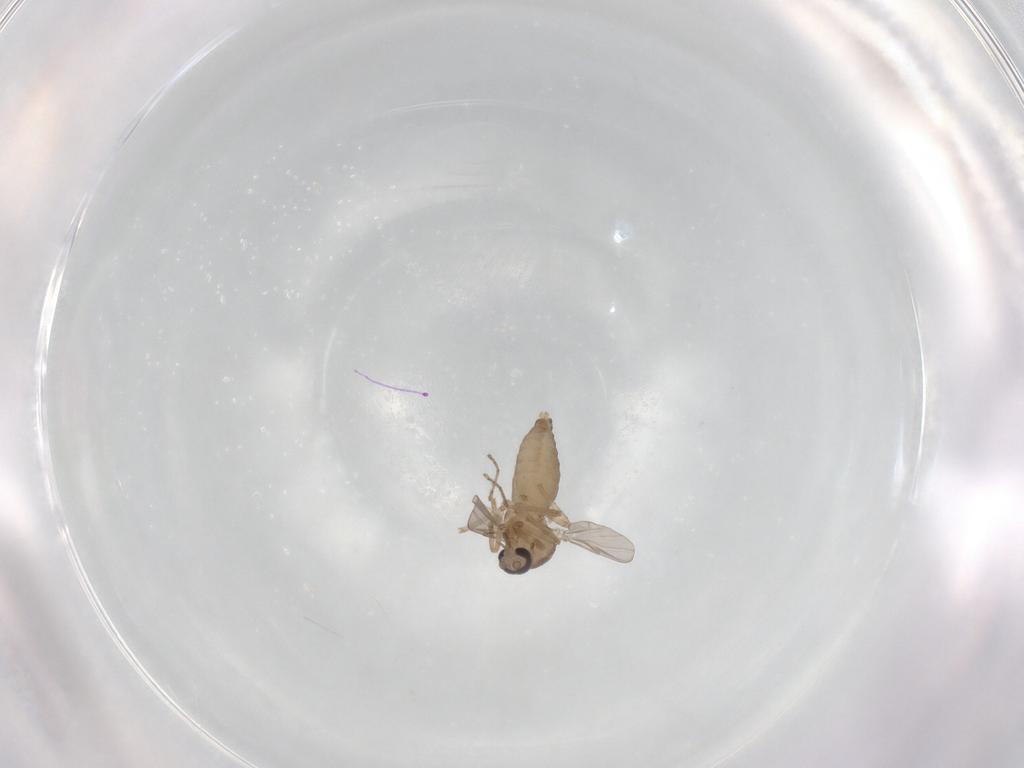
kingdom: Animalia
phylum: Arthropoda
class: Insecta
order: Diptera
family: Ceratopogonidae
